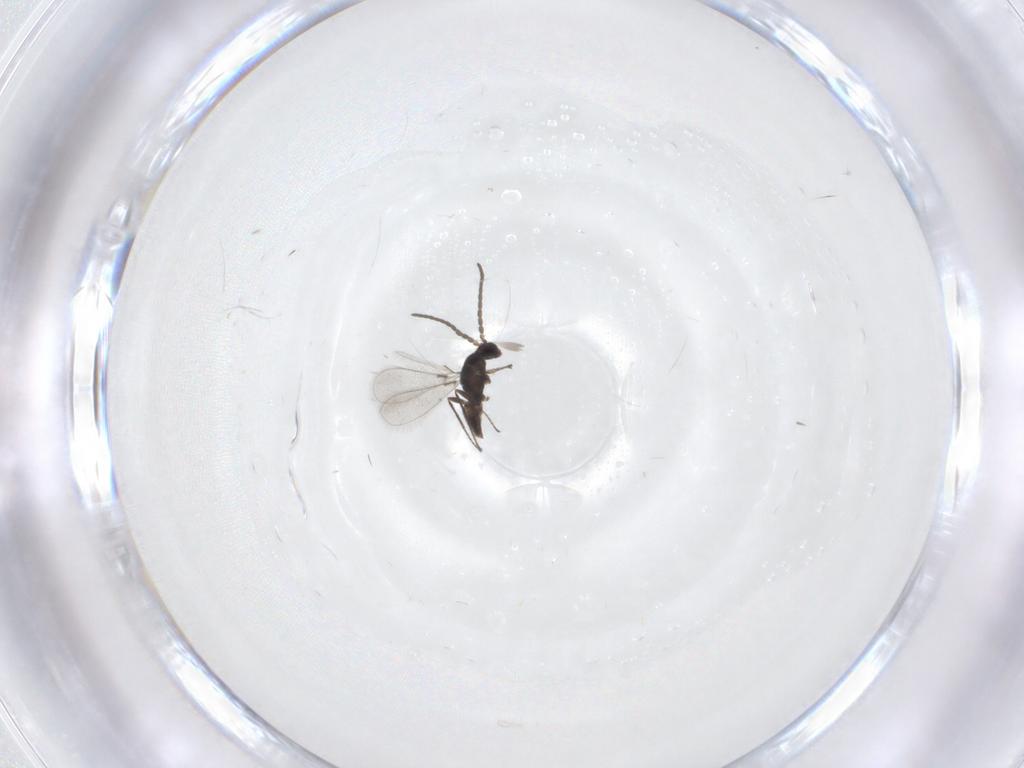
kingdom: Animalia
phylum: Arthropoda
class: Insecta
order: Hymenoptera
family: Mymaridae
